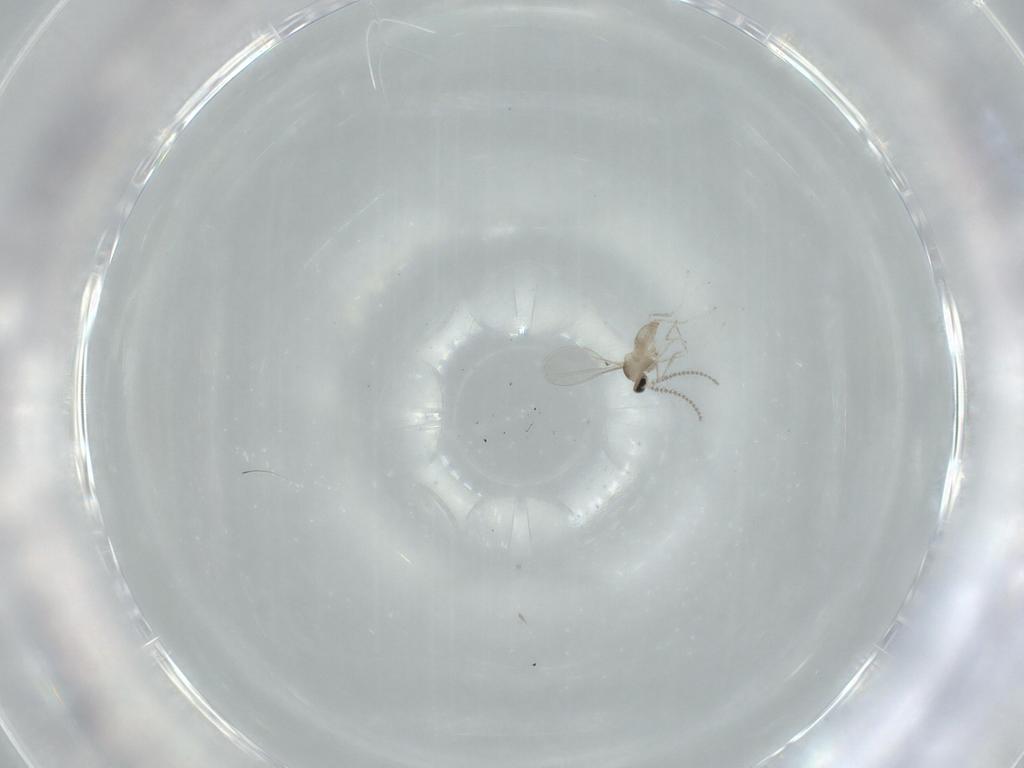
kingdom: Animalia
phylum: Arthropoda
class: Insecta
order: Diptera
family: Cecidomyiidae
